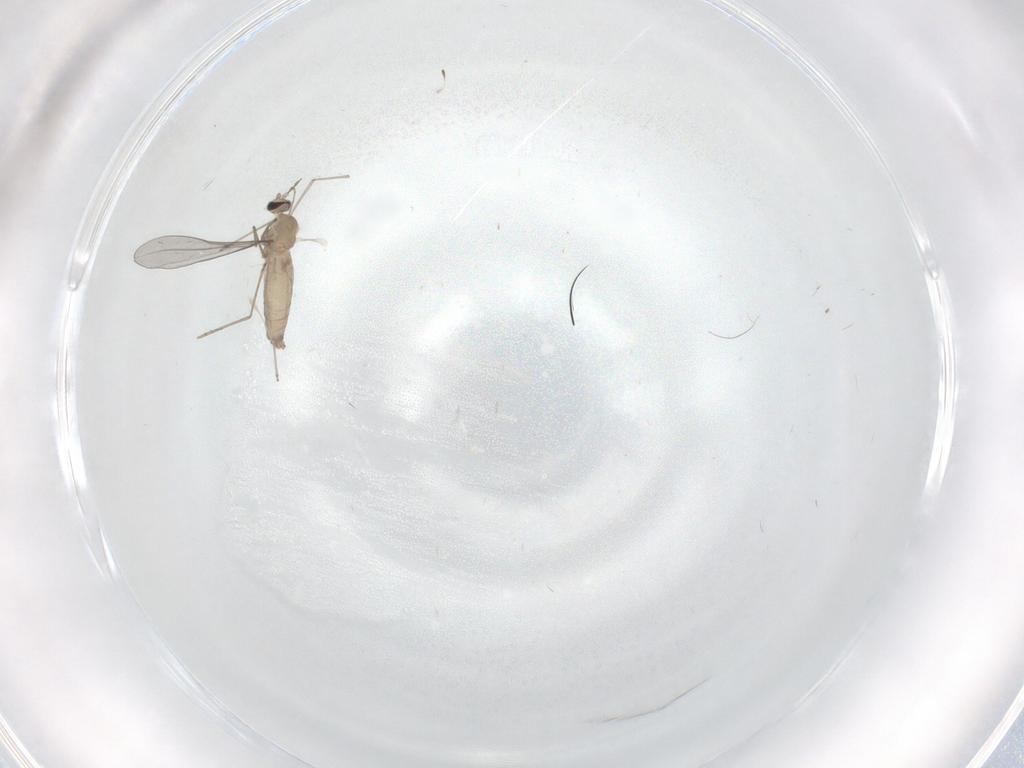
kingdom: Animalia
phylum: Arthropoda
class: Insecta
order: Diptera
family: Cecidomyiidae
